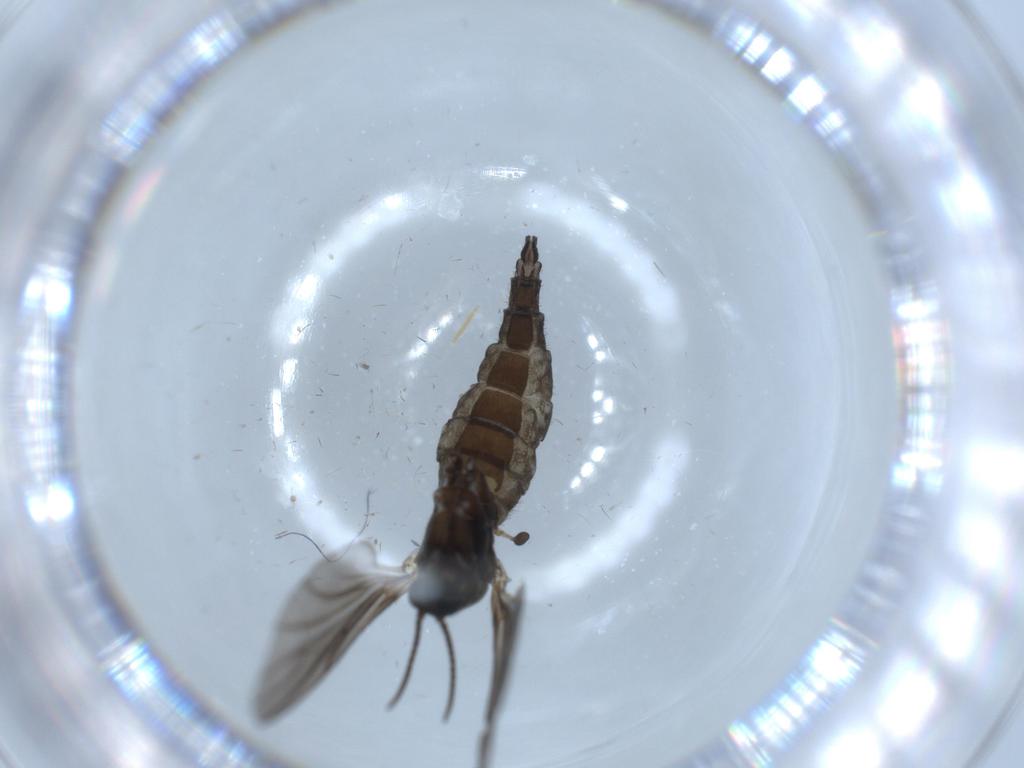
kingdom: Animalia
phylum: Arthropoda
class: Insecta
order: Diptera
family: Sciaridae
